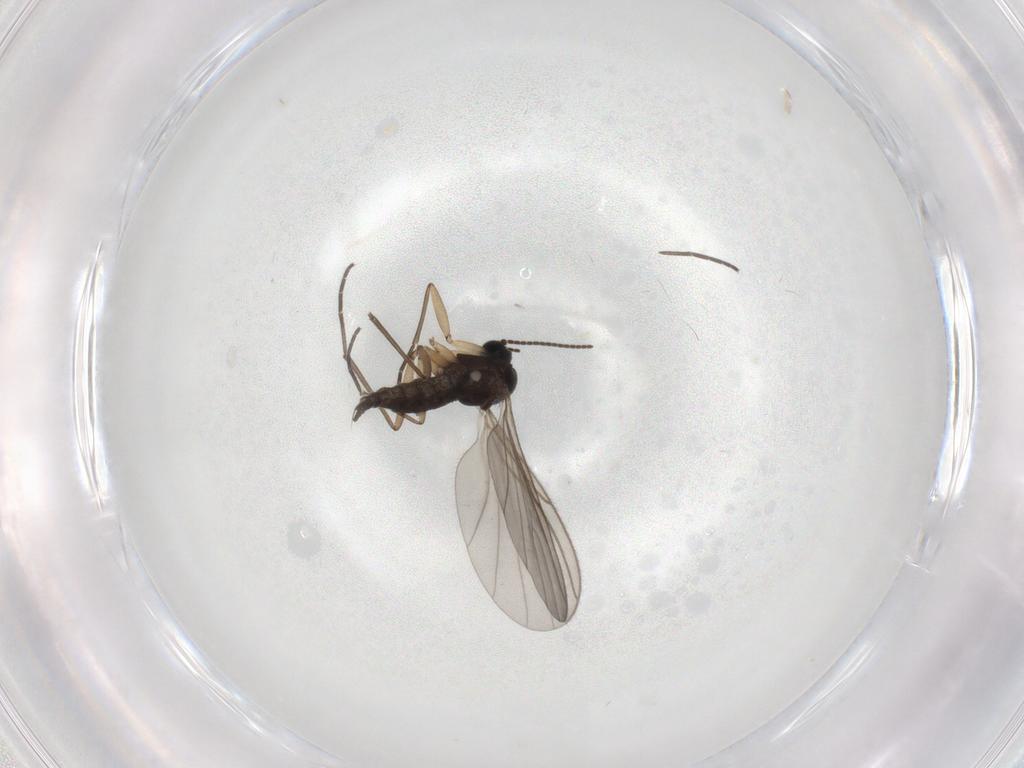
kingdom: Animalia
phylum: Arthropoda
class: Insecta
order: Diptera
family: Sciaridae
